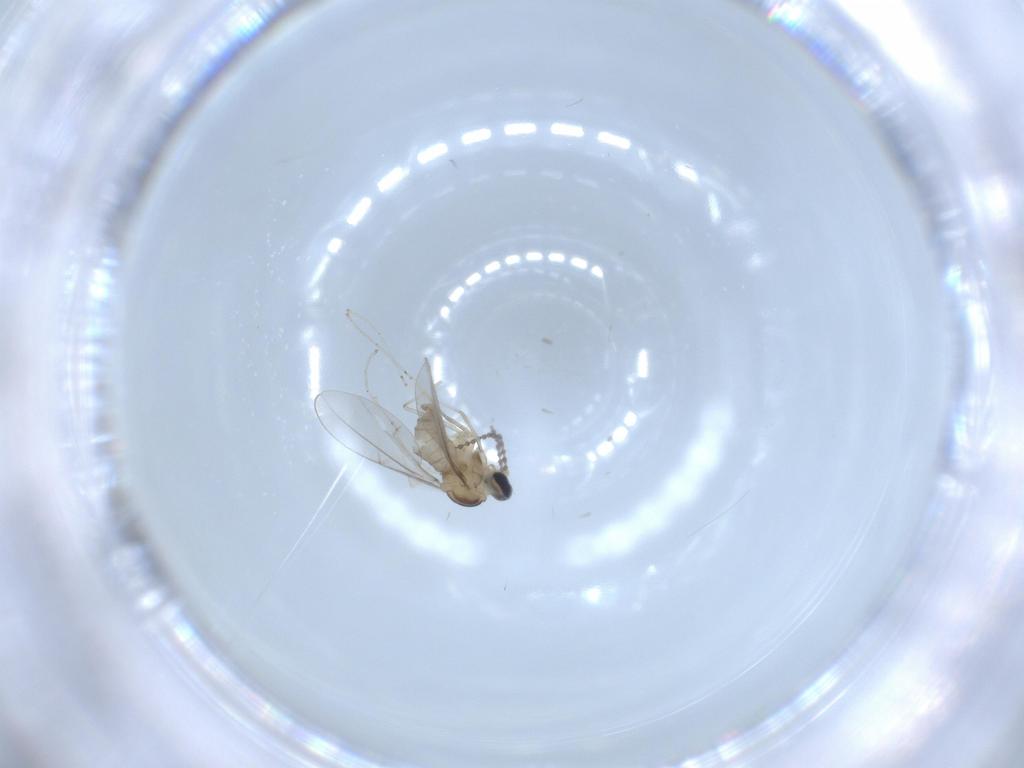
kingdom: Animalia
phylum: Arthropoda
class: Insecta
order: Diptera
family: Cecidomyiidae
